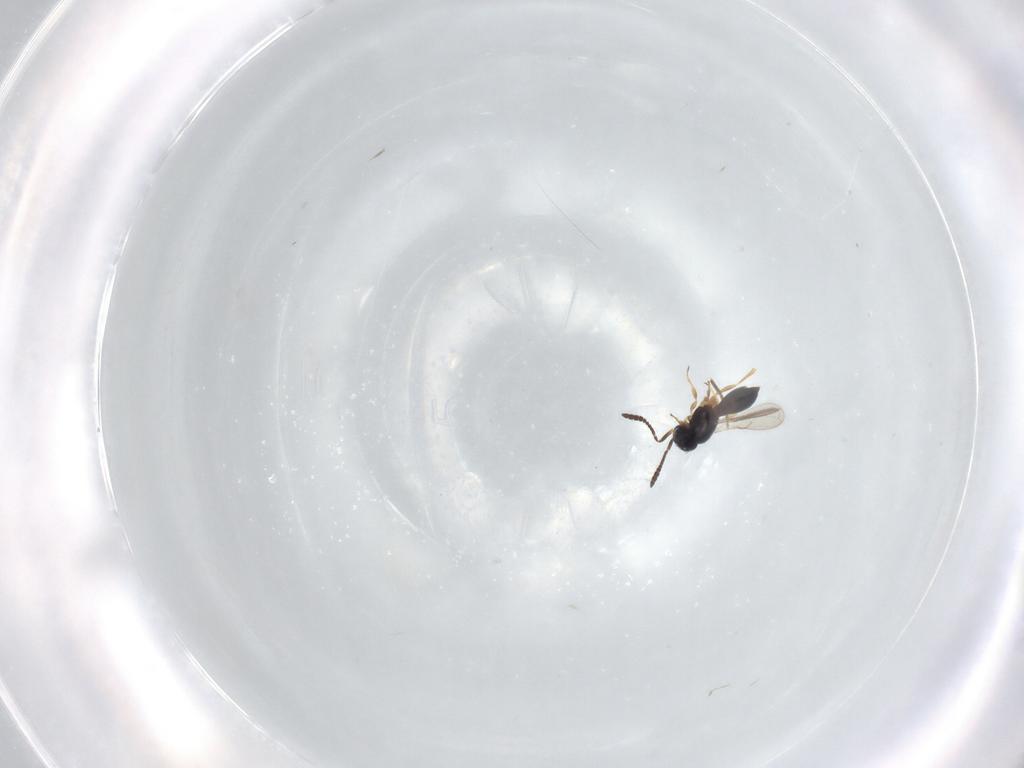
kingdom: Animalia
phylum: Arthropoda
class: Insecta
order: Hymenoptera
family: Scelionidae
